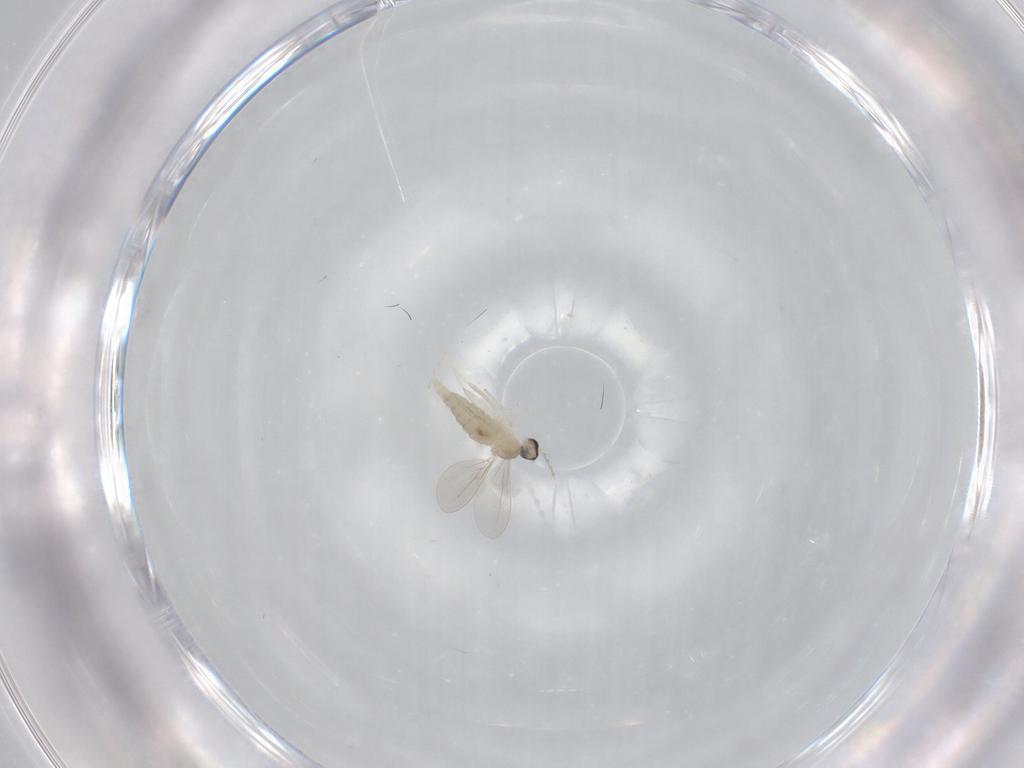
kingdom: Animalia
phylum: Arthropoda
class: Insecta
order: Diptera
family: Cecidomyiidae
